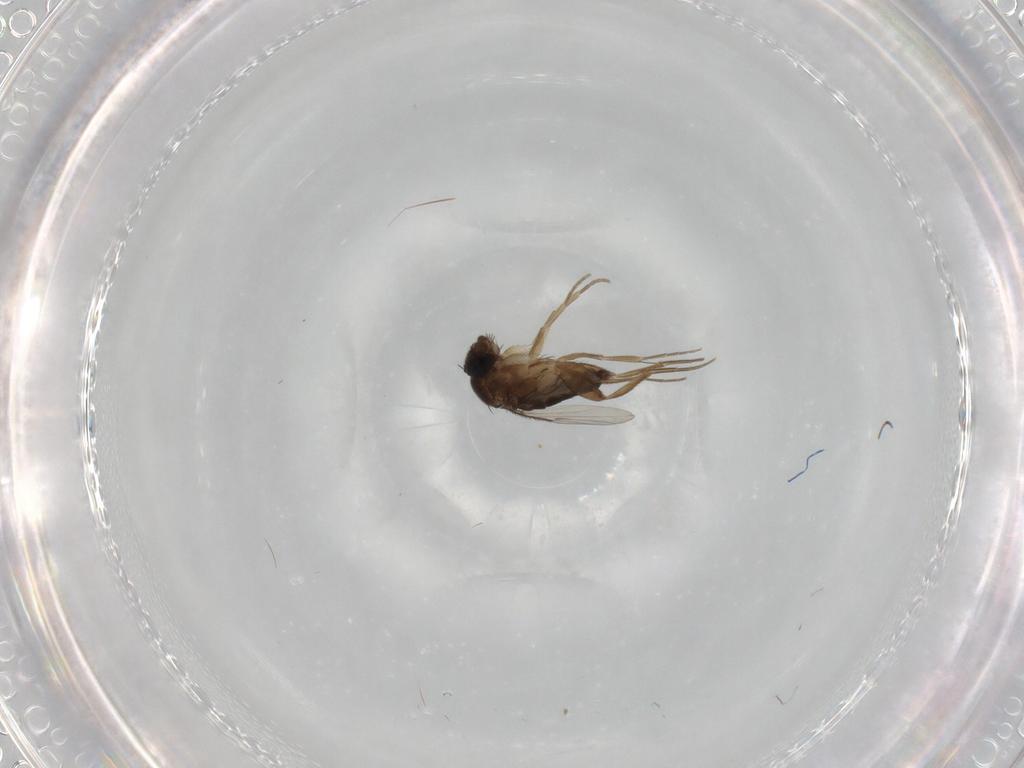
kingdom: Animalia
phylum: Arthropoda
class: Insecta
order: Diptera
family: Phoridae
